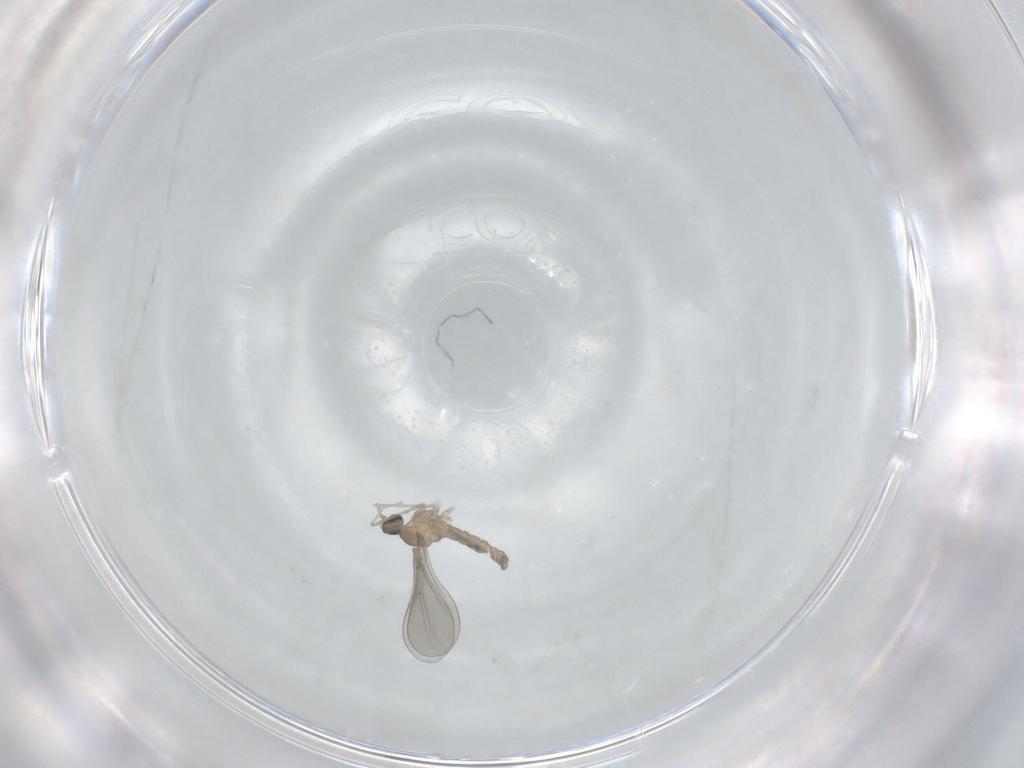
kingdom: Animalia
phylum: Arthropoda
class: Insecta
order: Diptera
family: Cecidomyiidae
